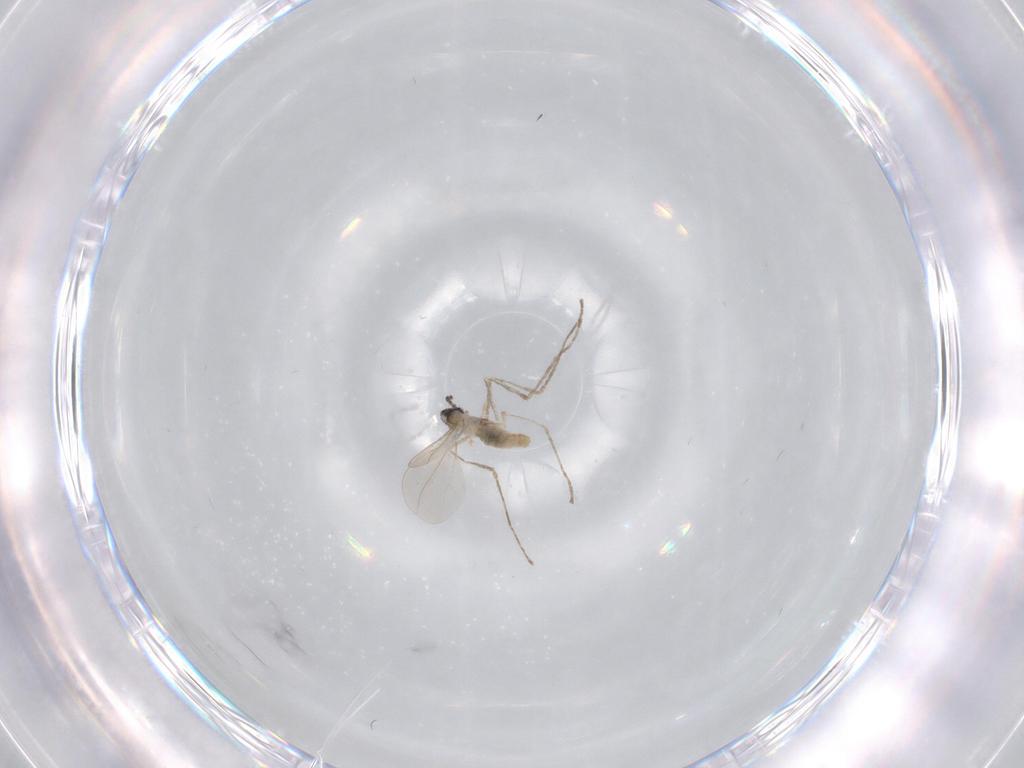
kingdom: Animalia
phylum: Arthropoda
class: Insecta
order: Diptera
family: Cecidomyiidae
